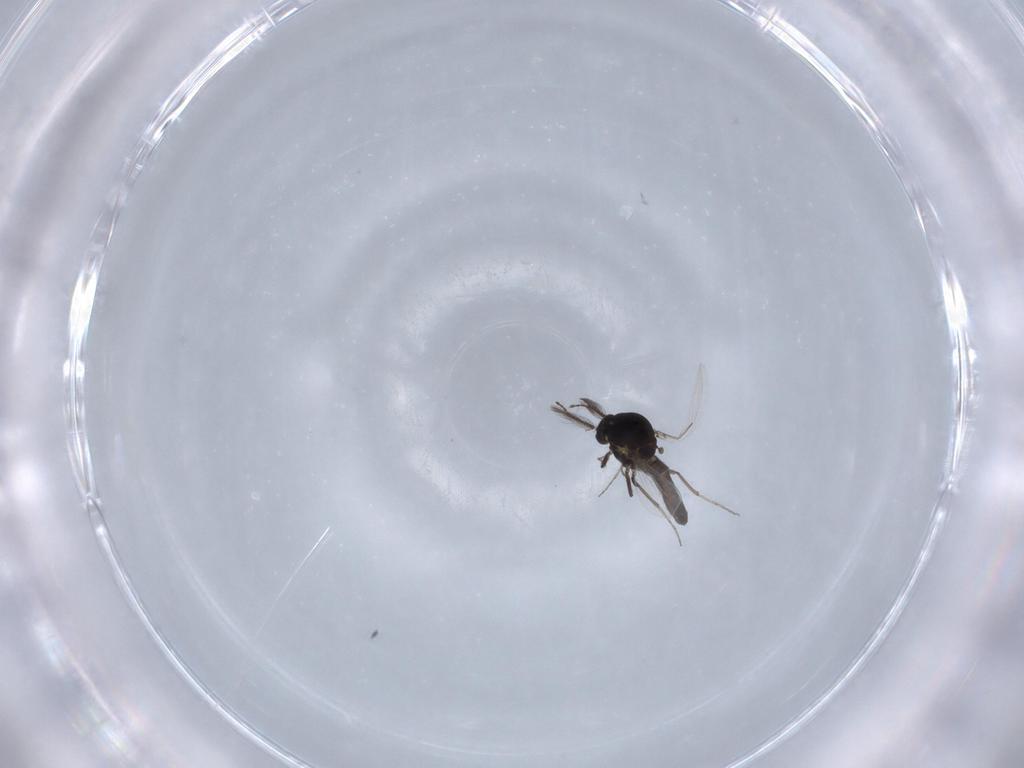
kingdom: Animalia
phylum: Arthropoda
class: Insecta
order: Diptera
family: Ceratopogonidae
